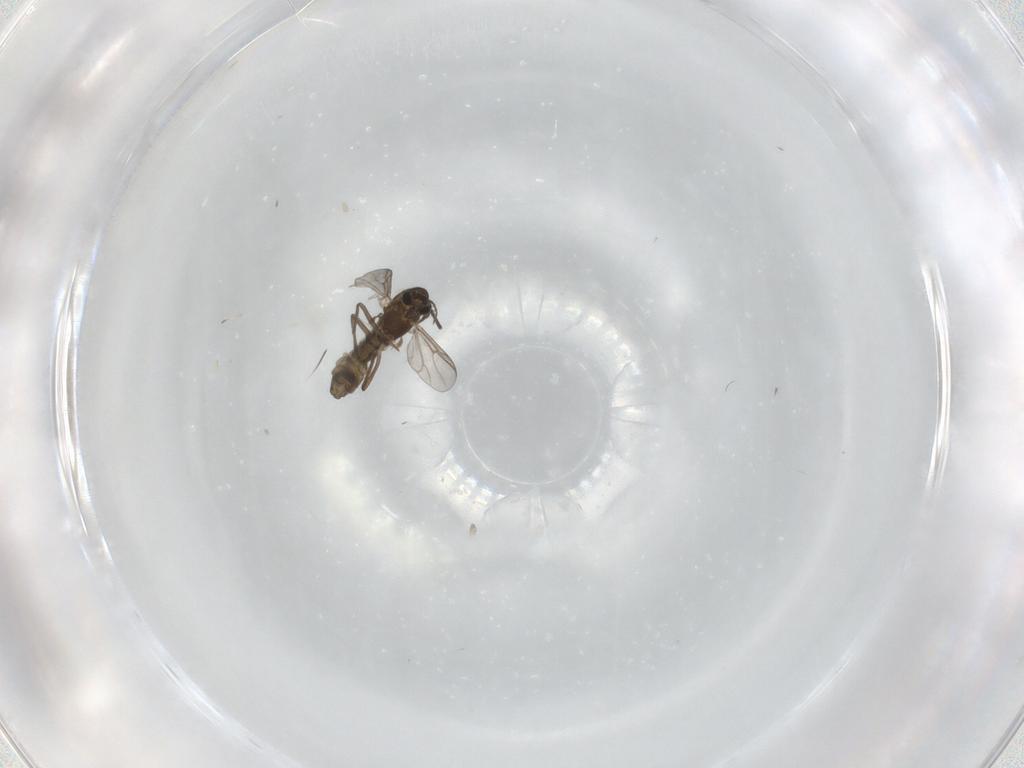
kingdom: Animalia
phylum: Arthropoda
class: Insecta
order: Diptera
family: Chironomidae
